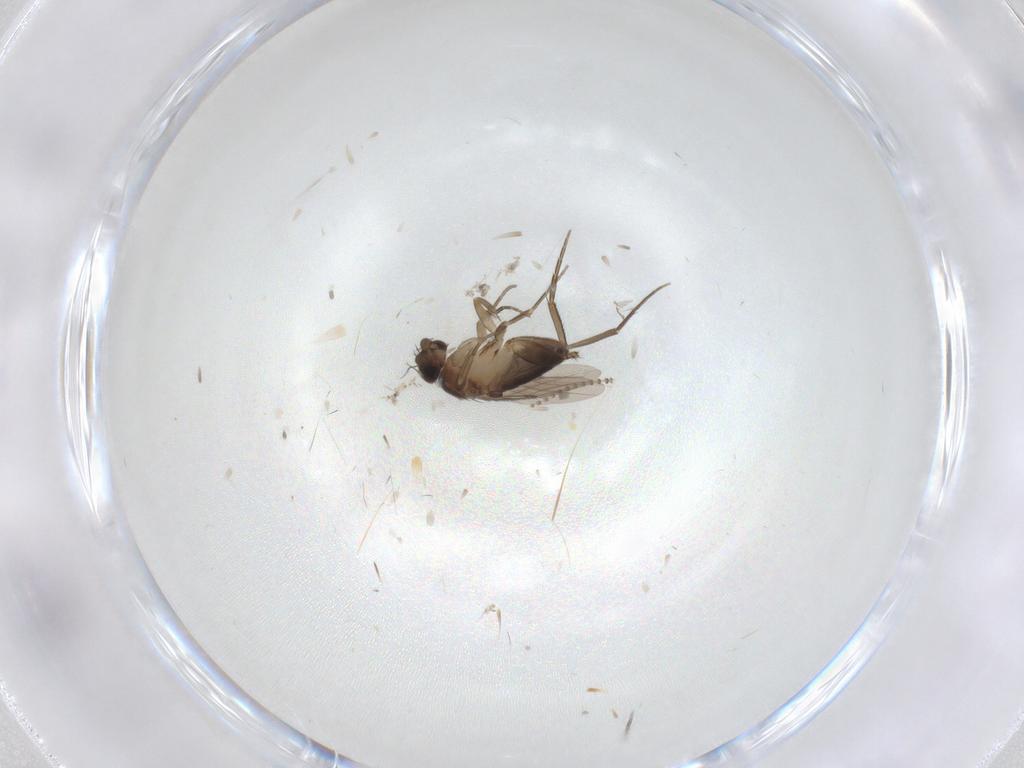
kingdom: Animalia
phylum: Arthropoda
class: Insecta
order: Diptera
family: Phoridae
